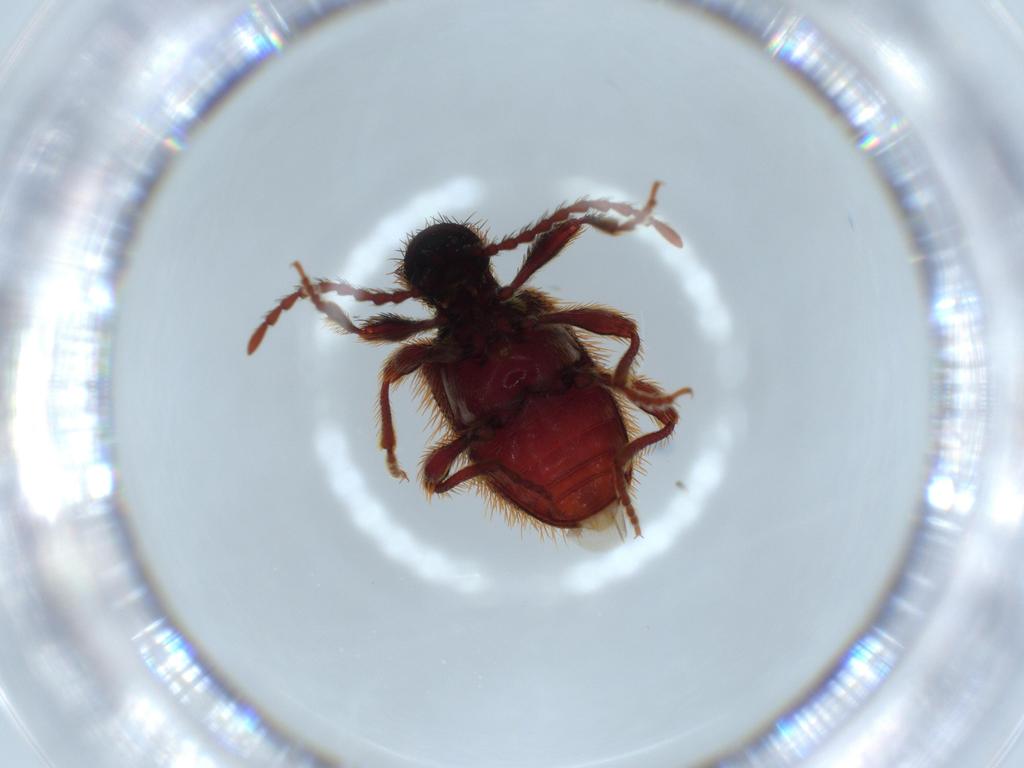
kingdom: Animalia
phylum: Arthropoda
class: Insecta
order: Coleoptera
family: Ptinidae
